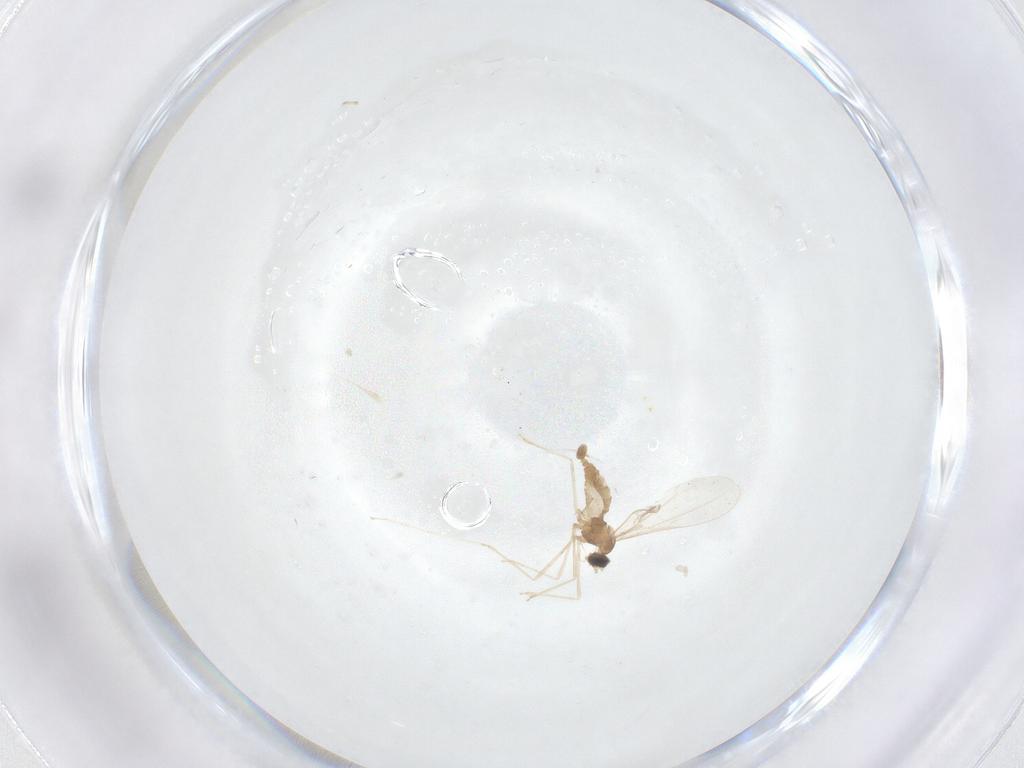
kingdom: Animalia
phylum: Arthropoda
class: Insecta
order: Diptera
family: Cecidomyiidae
